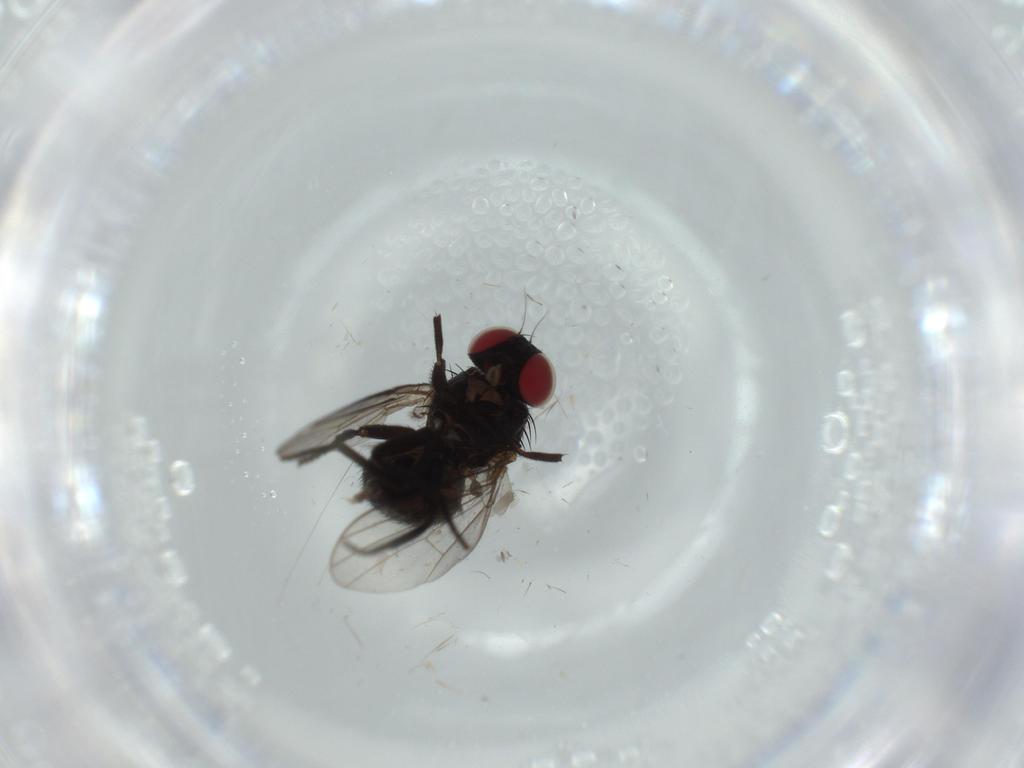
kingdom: Animalia
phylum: Arthropoda
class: Insecta
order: Diptera
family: Agromyzidae
